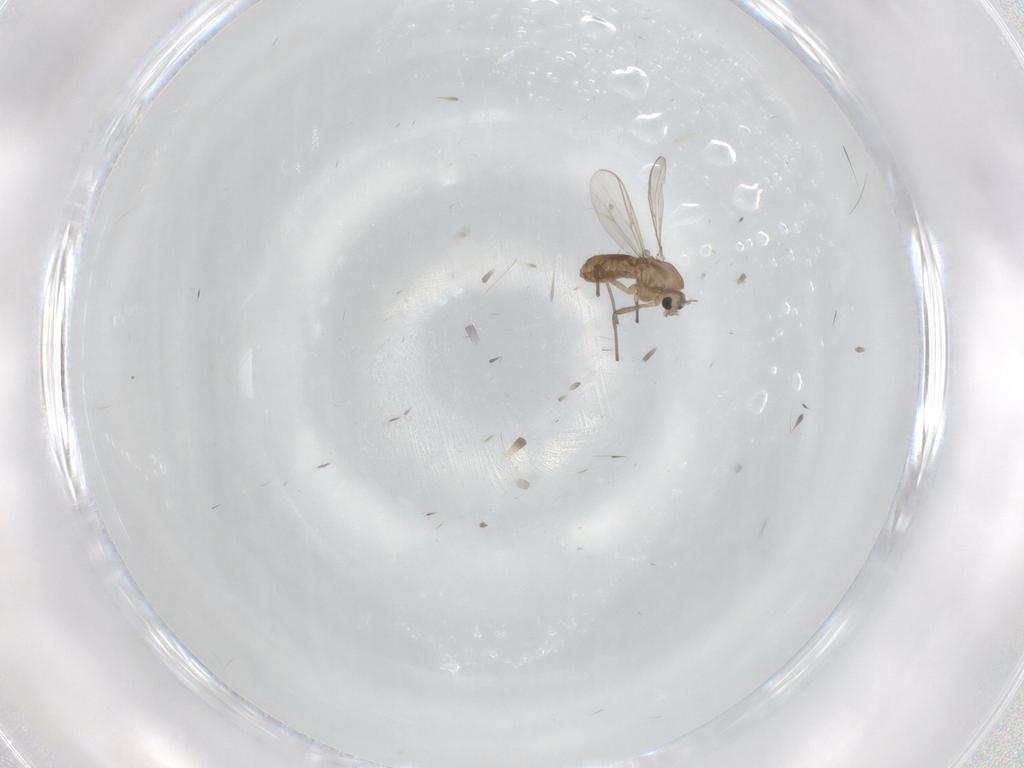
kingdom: Animalia
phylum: Arthropoda
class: Insecta
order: Diptera
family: Chironomidae
